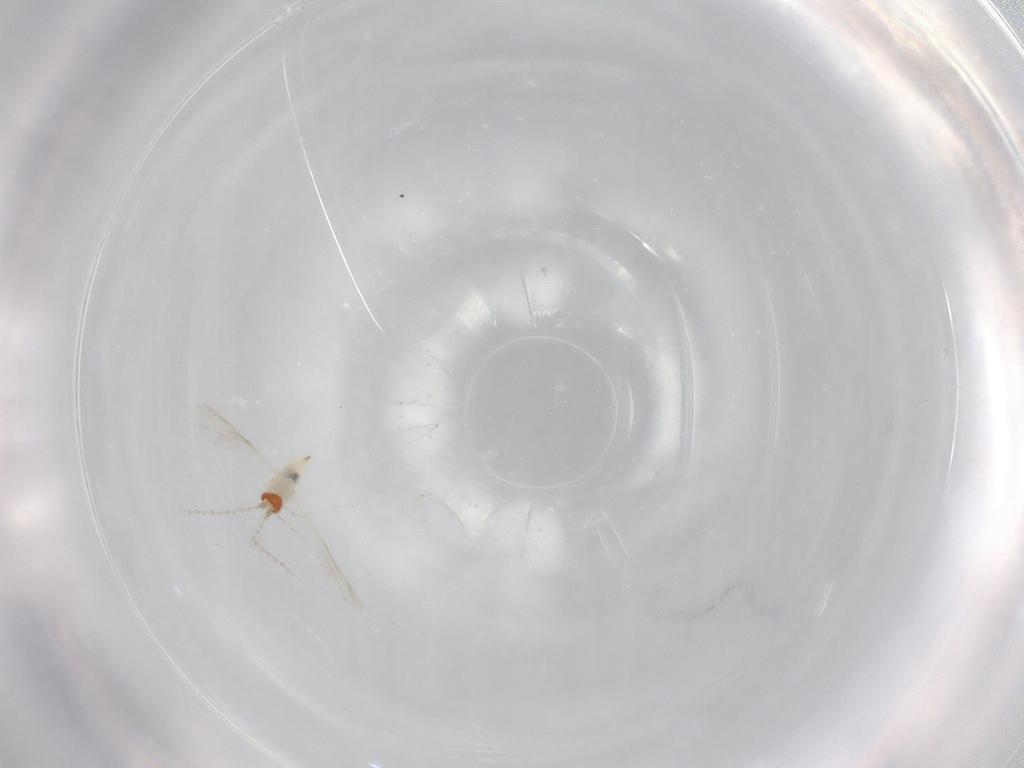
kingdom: Animalia
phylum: Arthropoda
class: Insecta
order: Diptera
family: Cecidomyiidae
